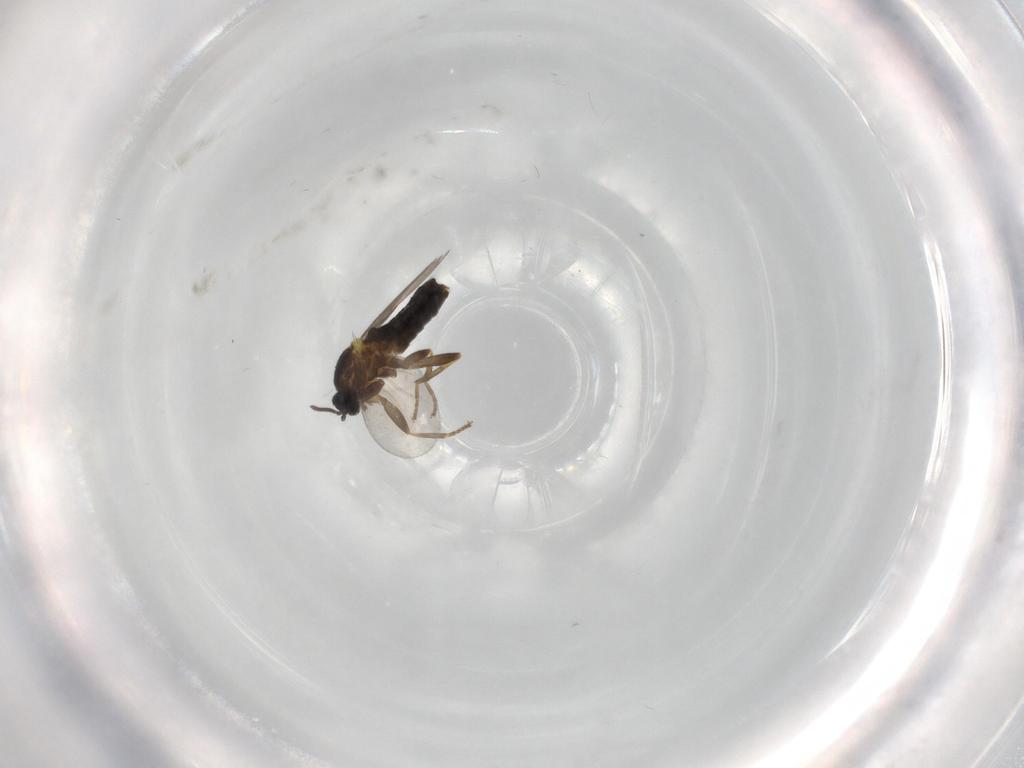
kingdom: Animalia
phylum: Arthropoda
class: Insecta
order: Diptera
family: Scatopsidae
